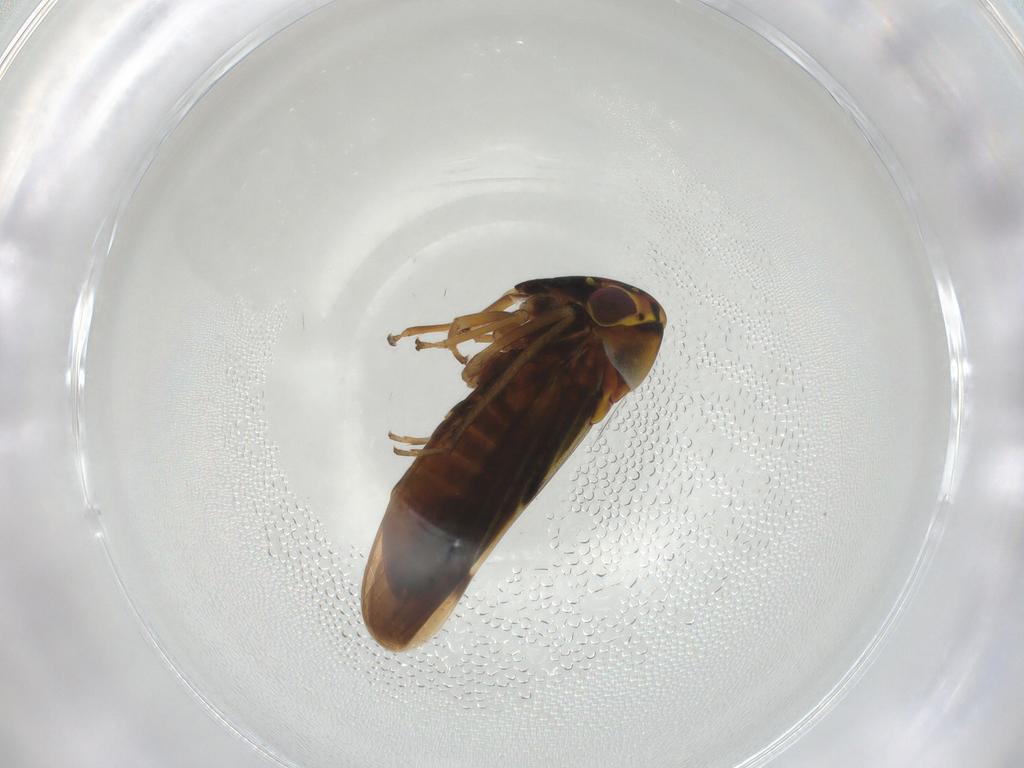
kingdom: Animalia
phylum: Arthropoda
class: Insecta
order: Hemiptera
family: Cicadellidae
